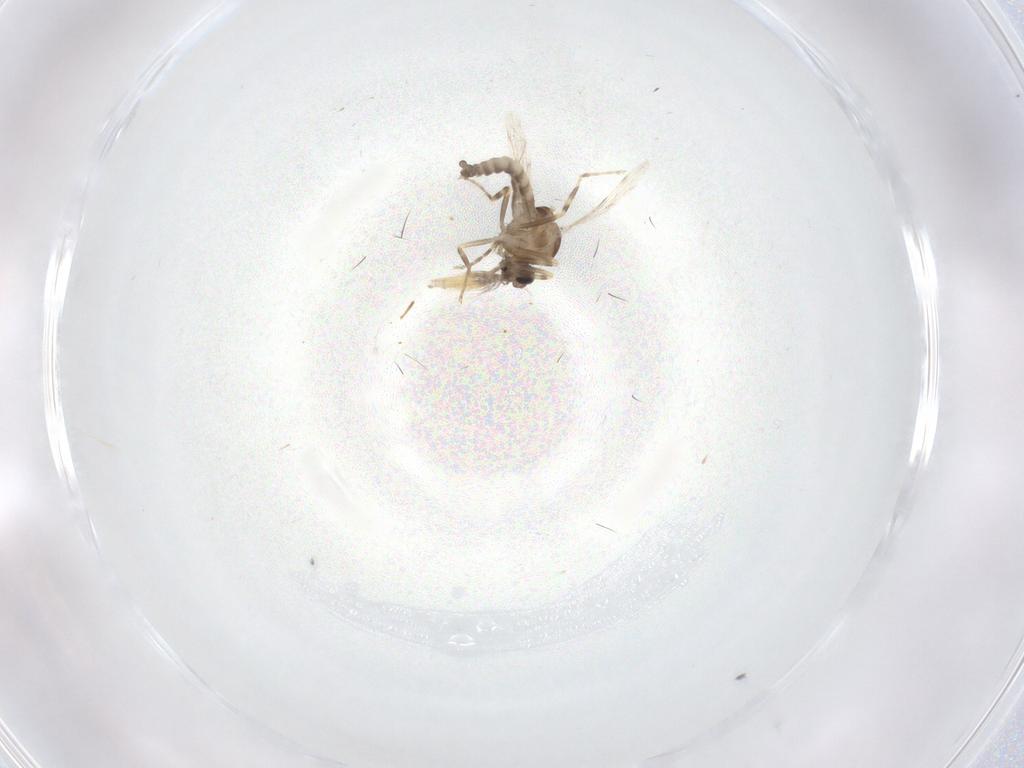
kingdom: Animalia
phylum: Arthropoda
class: Insecta
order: Diptera
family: Ceratopogonidae
